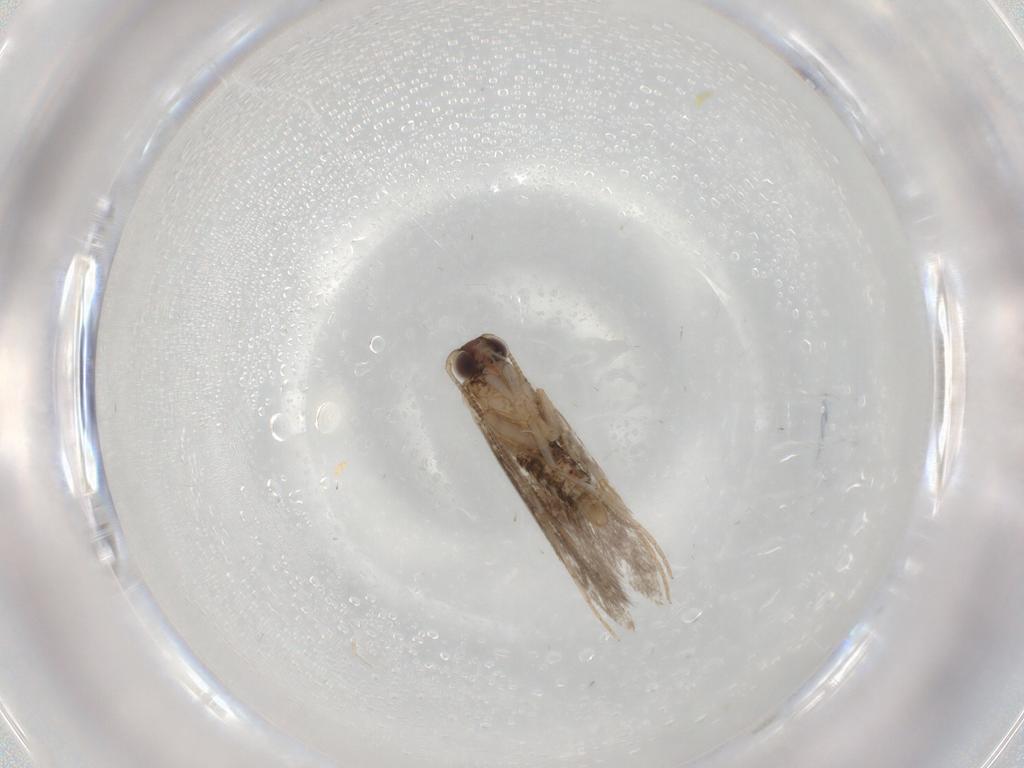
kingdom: Animalia
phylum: Arthropoda
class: Insecta
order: Lepidoptera
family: Tineidae
